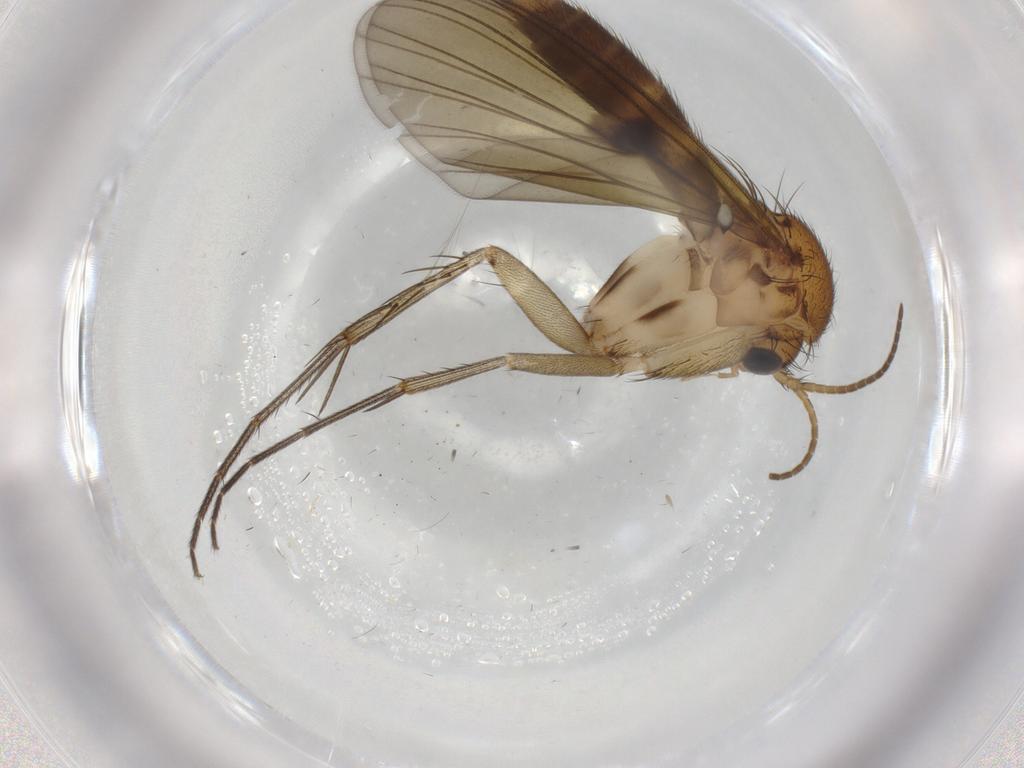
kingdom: Animalia
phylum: Arthropoda
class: Insecta
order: Diptera
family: Mycetophilidae
